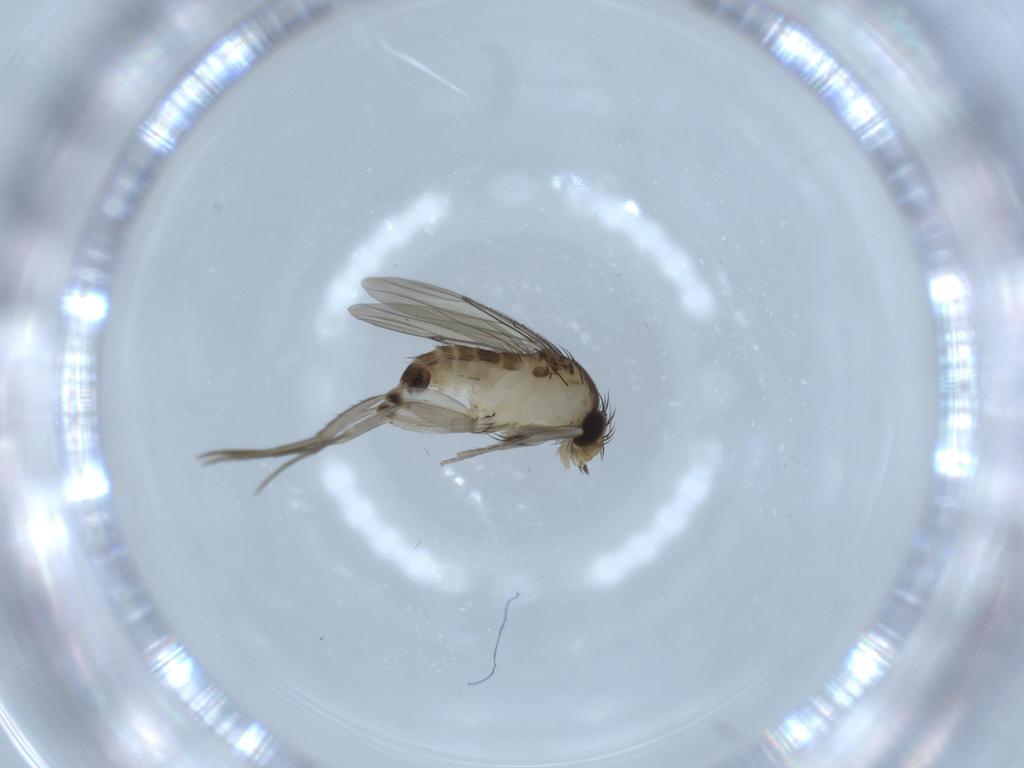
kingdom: Animalia
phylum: Arthropoda
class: Insecta
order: Diptera
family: Phoridae
